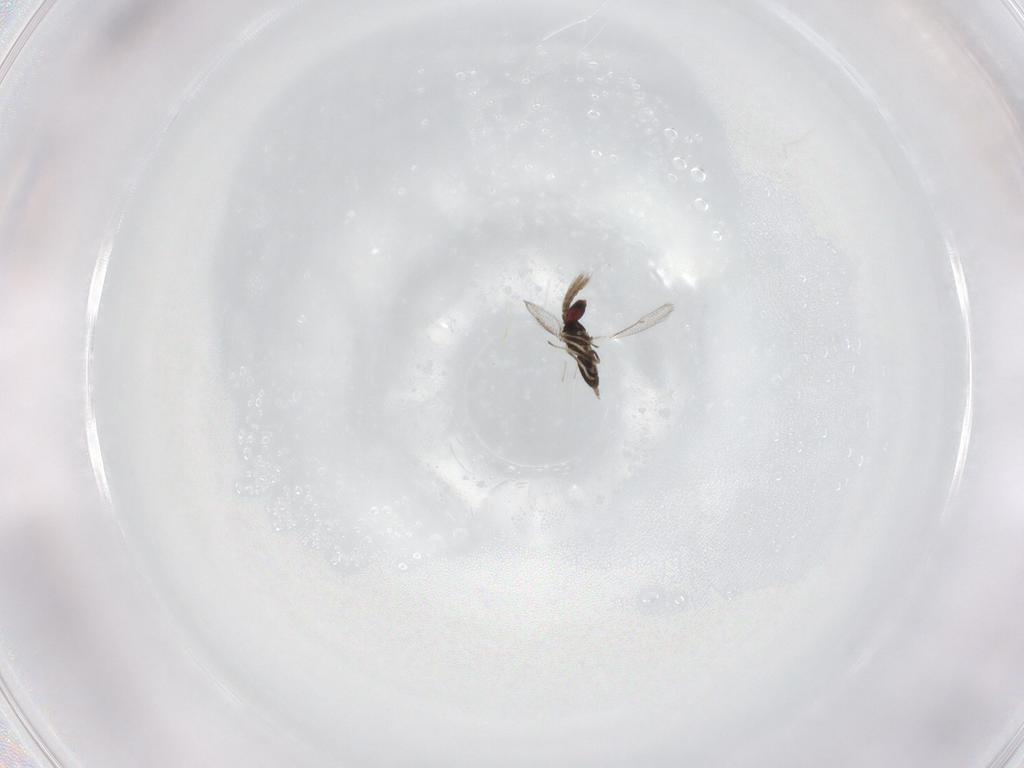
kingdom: Animalia
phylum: Arthropoda
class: Insecta
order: Hymenoptera
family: Eulophidae
